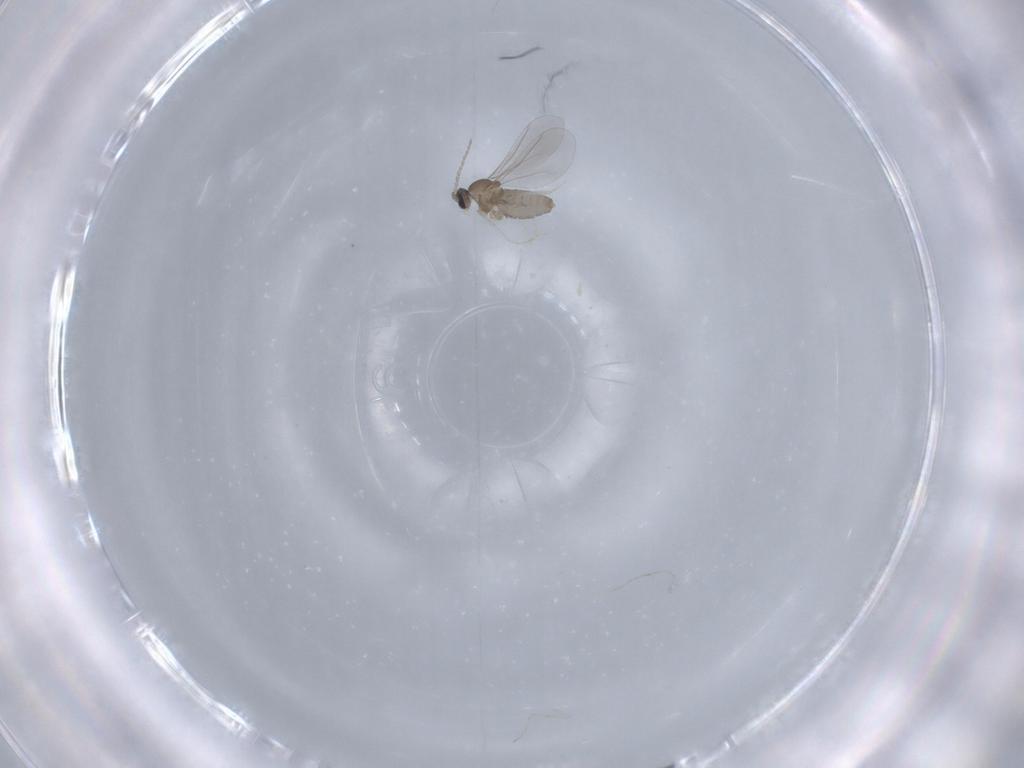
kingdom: Animalia
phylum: Arthropoda
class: Insecta
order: Diptera
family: Cecidomyiidae
